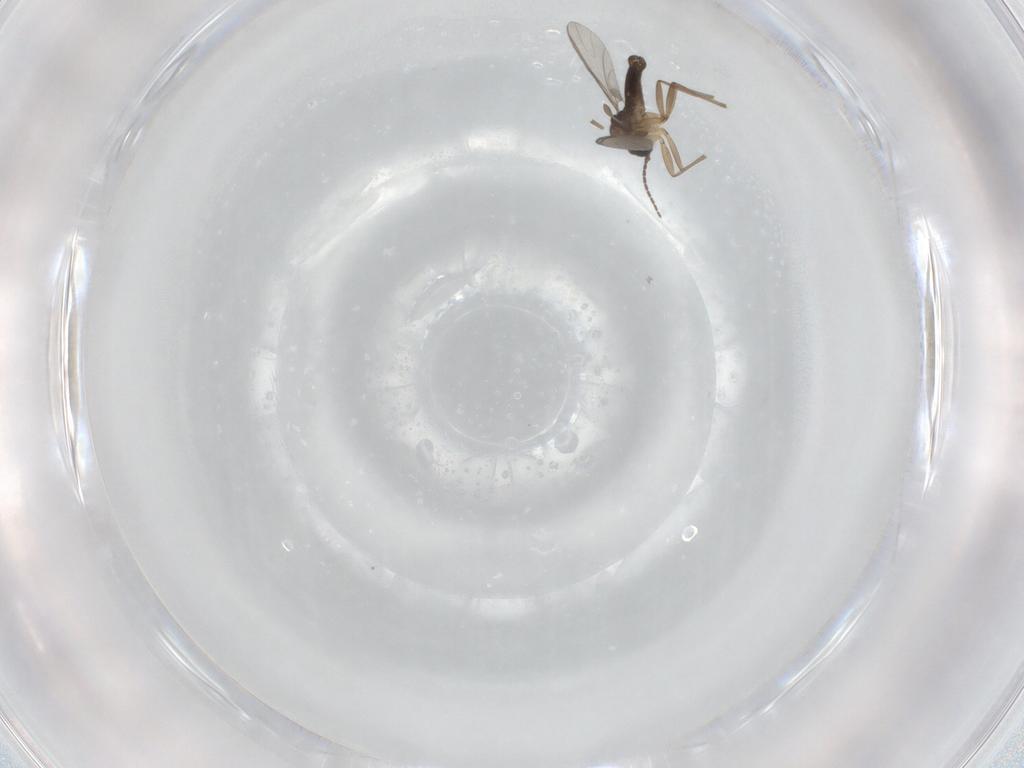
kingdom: Animalia
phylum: Arthropoda
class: Insecta
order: Diptera
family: Sciaridae
